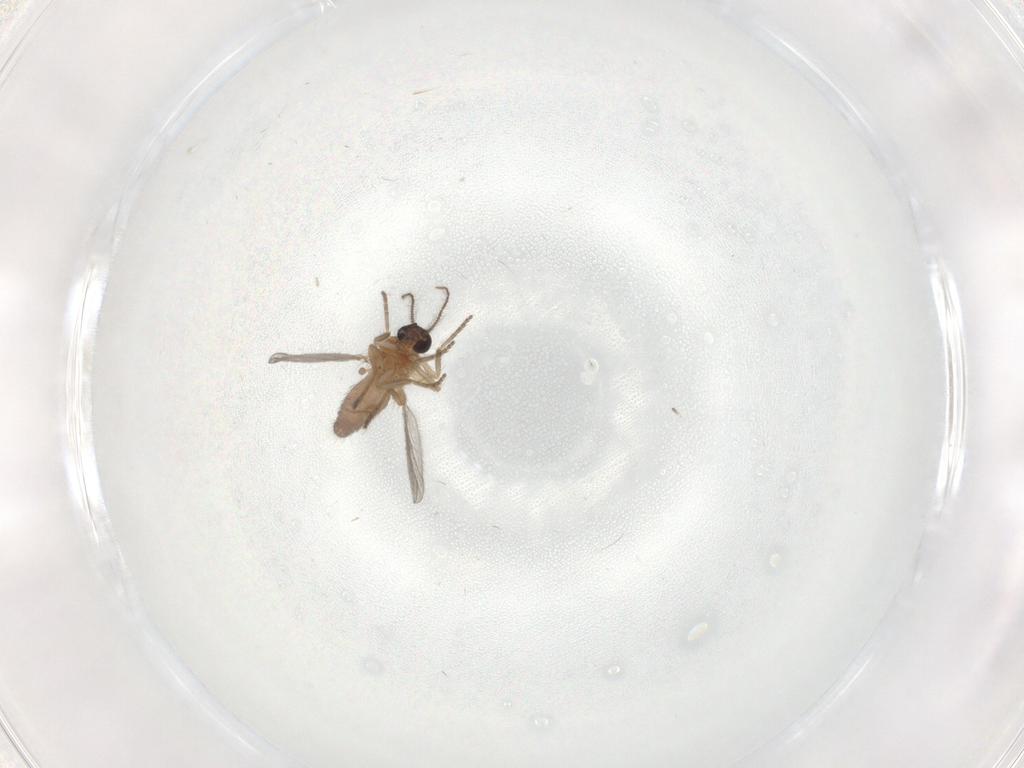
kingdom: Animalia
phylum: Arthropoda
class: Insecta
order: Diptera
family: Ceratopogonidae
